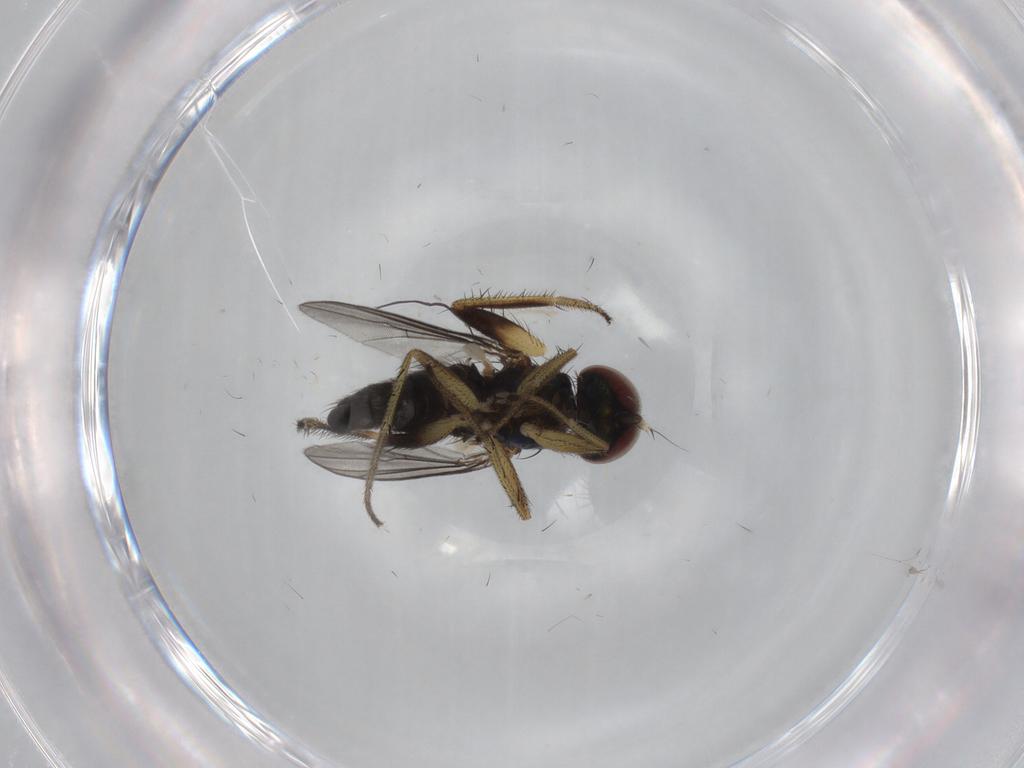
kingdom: Animalia
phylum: Arthropoda
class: Insecta
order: Diptera
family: Dolichopodidae
